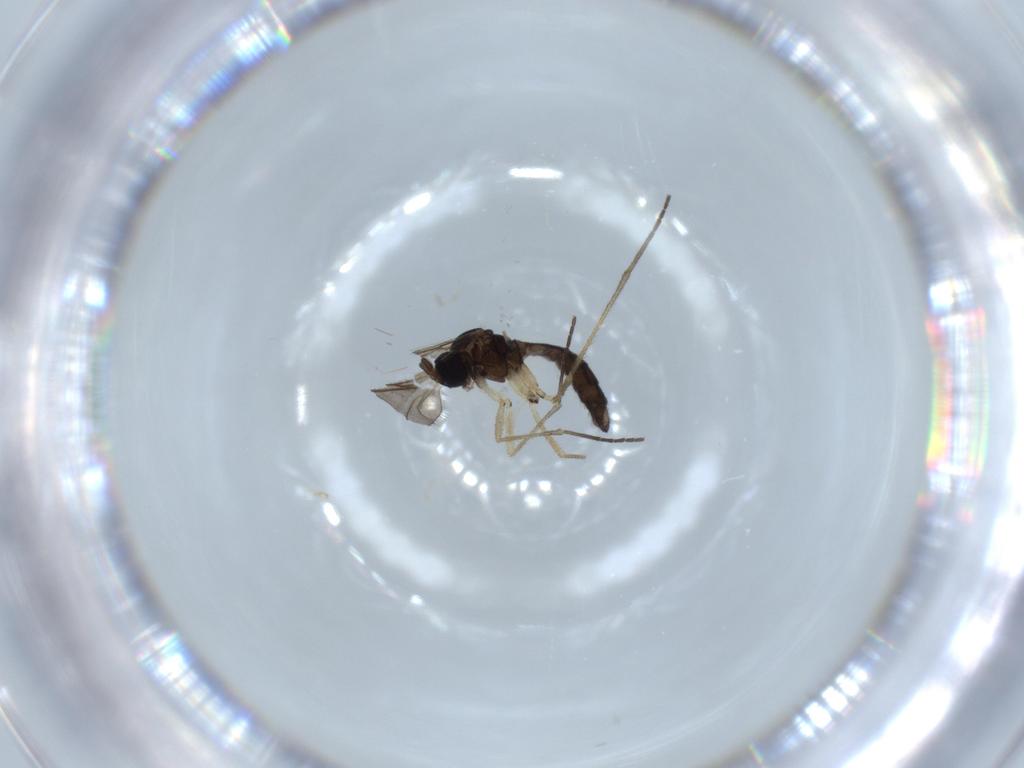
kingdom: Animalia
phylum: Arthropoda
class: Insecta
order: Diptera
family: Sciaridae
